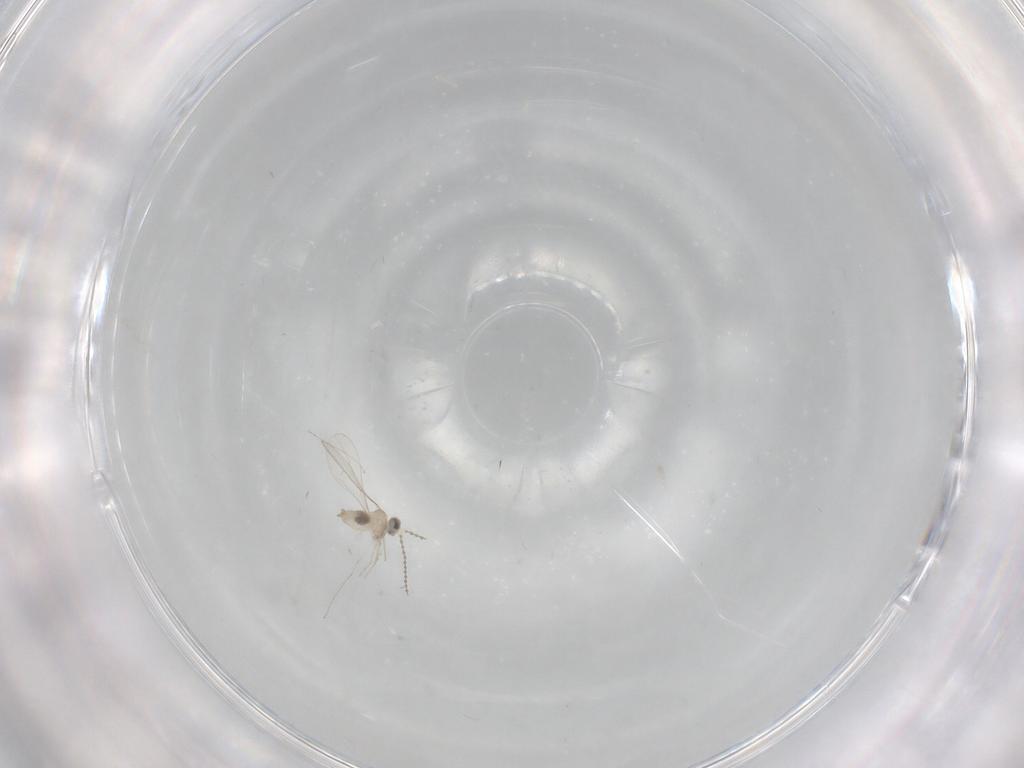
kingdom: Animalia
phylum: Arthropoda
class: Insecta
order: Diptera
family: Cecidomyiidae
